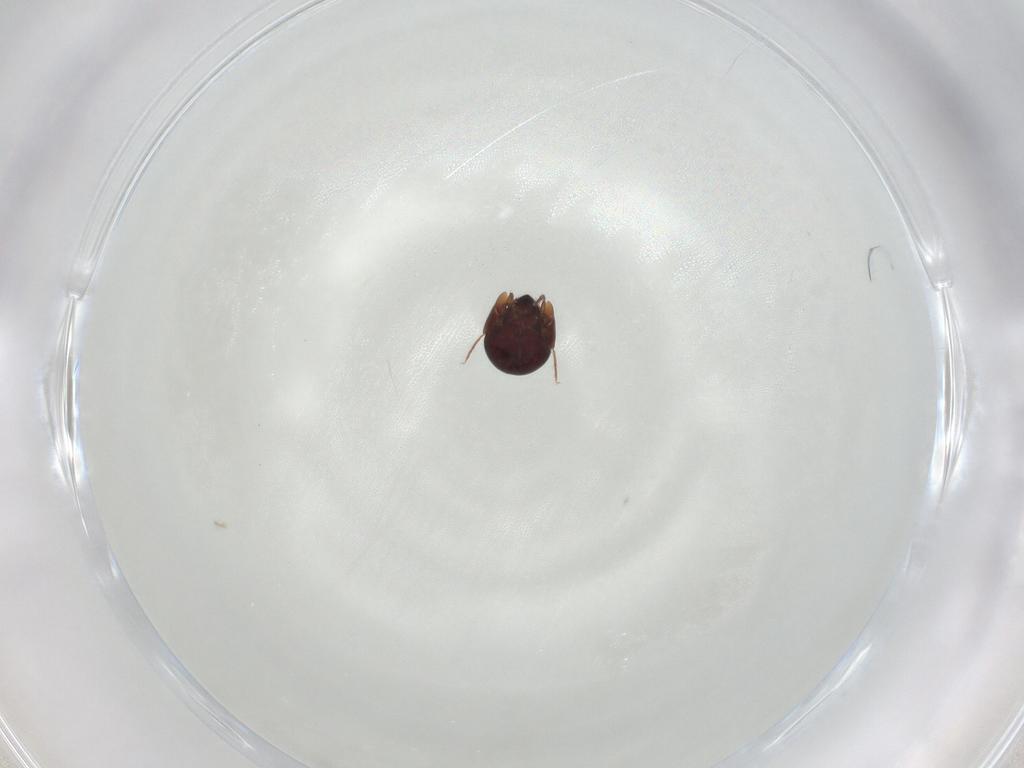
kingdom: Animalia
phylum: Arthropoda
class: Arachnida
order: Sarcoptiformes
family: Galumnidae
